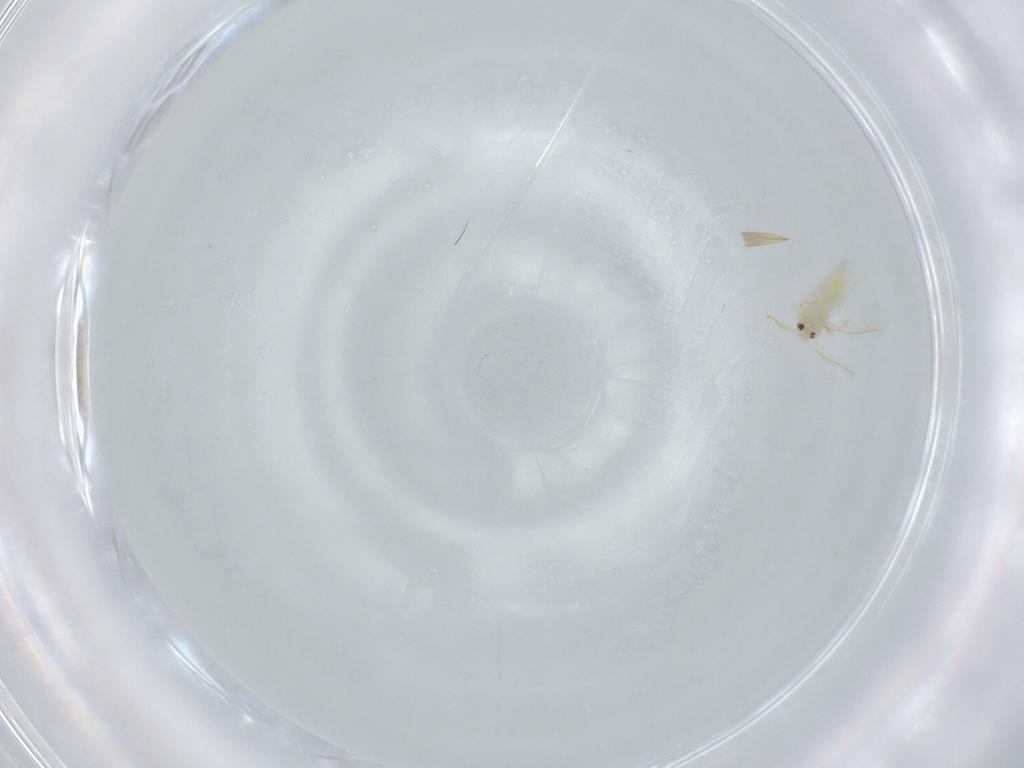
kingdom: Animalia
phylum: Arthropoda
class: Insecta
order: Hemiptera
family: Aleyrodidae
